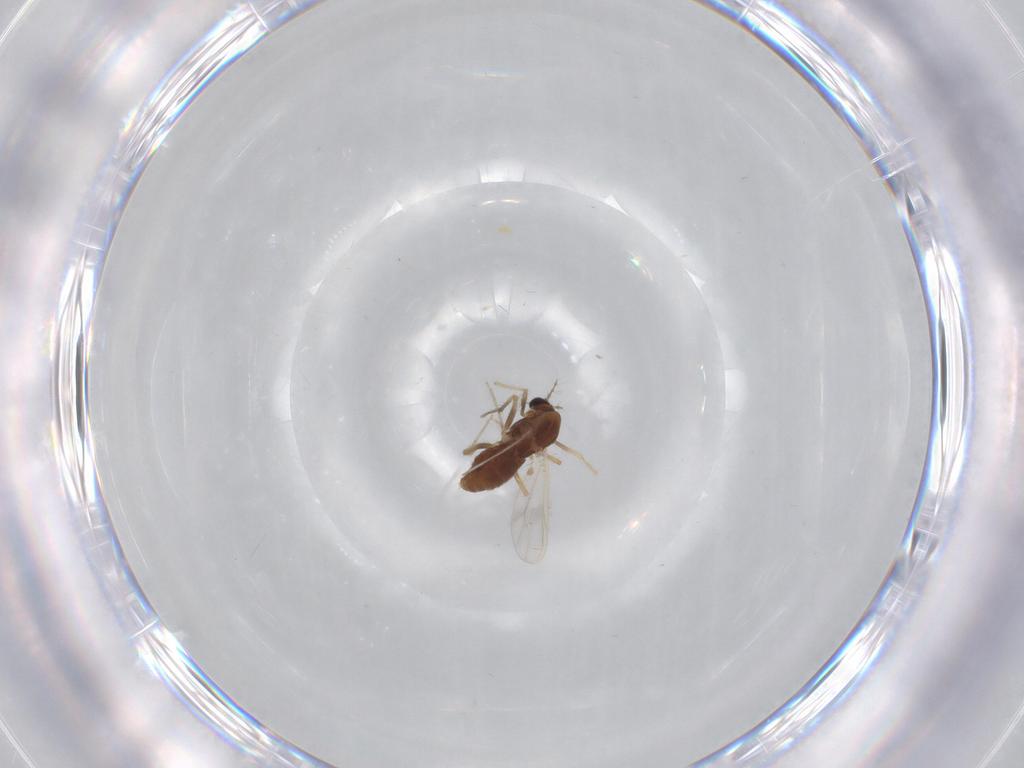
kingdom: Animalia
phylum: Arthropoda
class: Insecta
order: Diptera
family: Chironomidae
